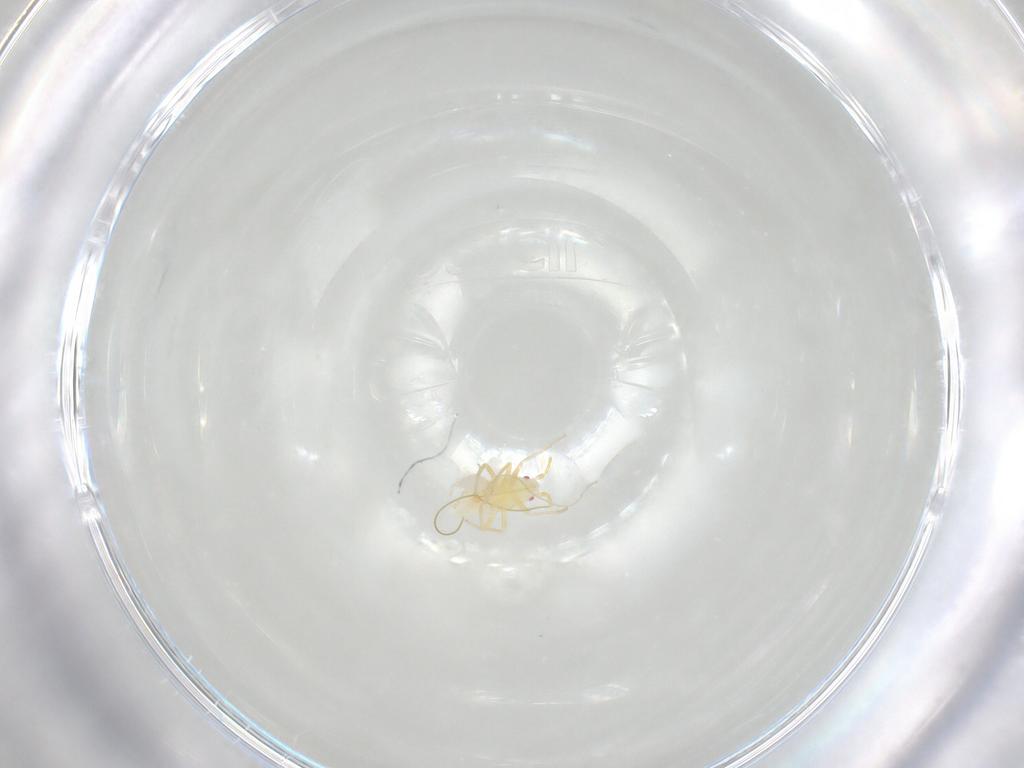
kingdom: Animalia
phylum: Arthropoda
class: Insecta
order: Hemiptera
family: Miridae
